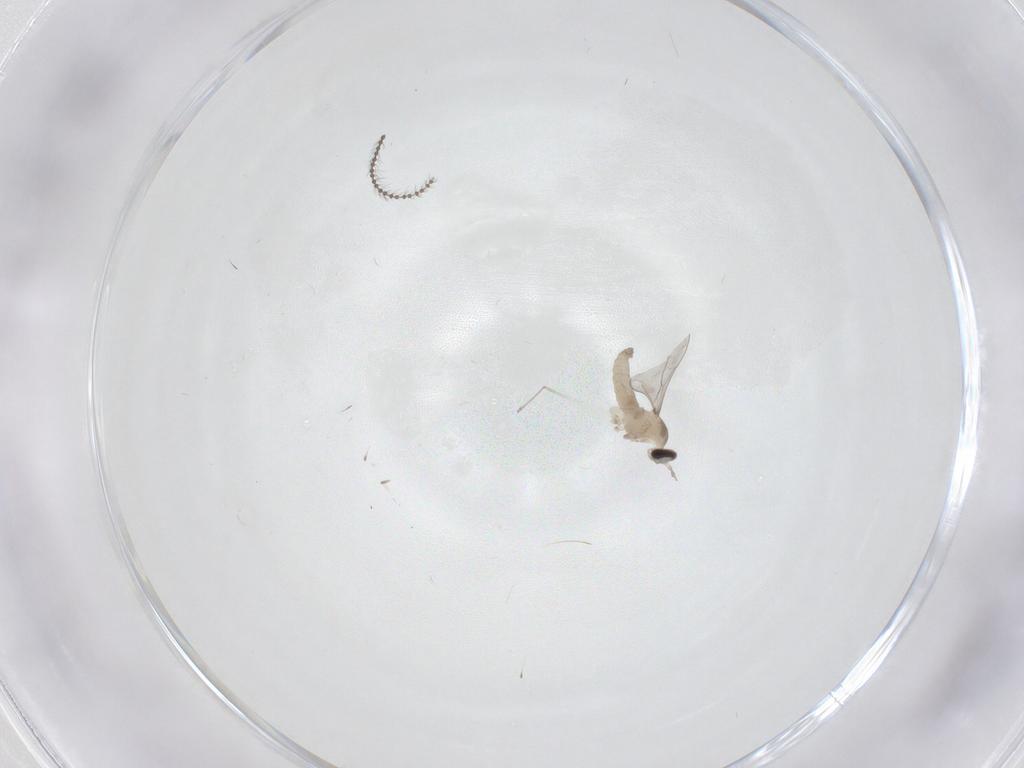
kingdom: Animalia
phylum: Arthropoda
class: Insecta
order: Diptera
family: Cecidomyiidae
